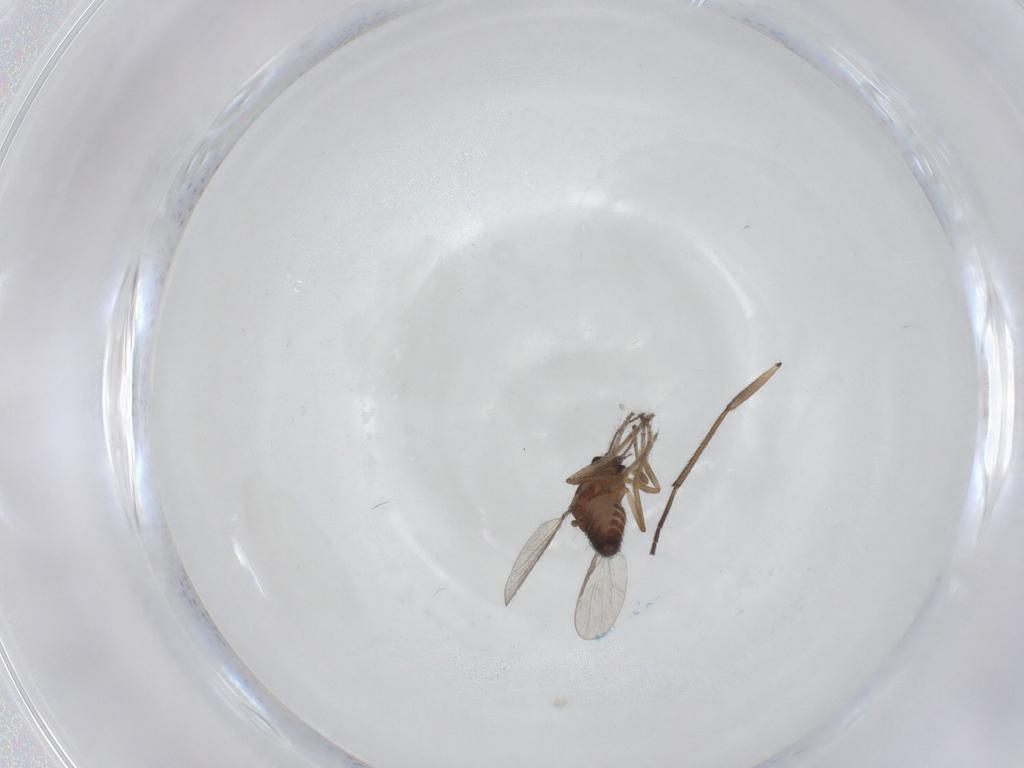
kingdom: Animalia
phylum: Arthropoda
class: Insecta
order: Diptera
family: Ceratopogonidae
